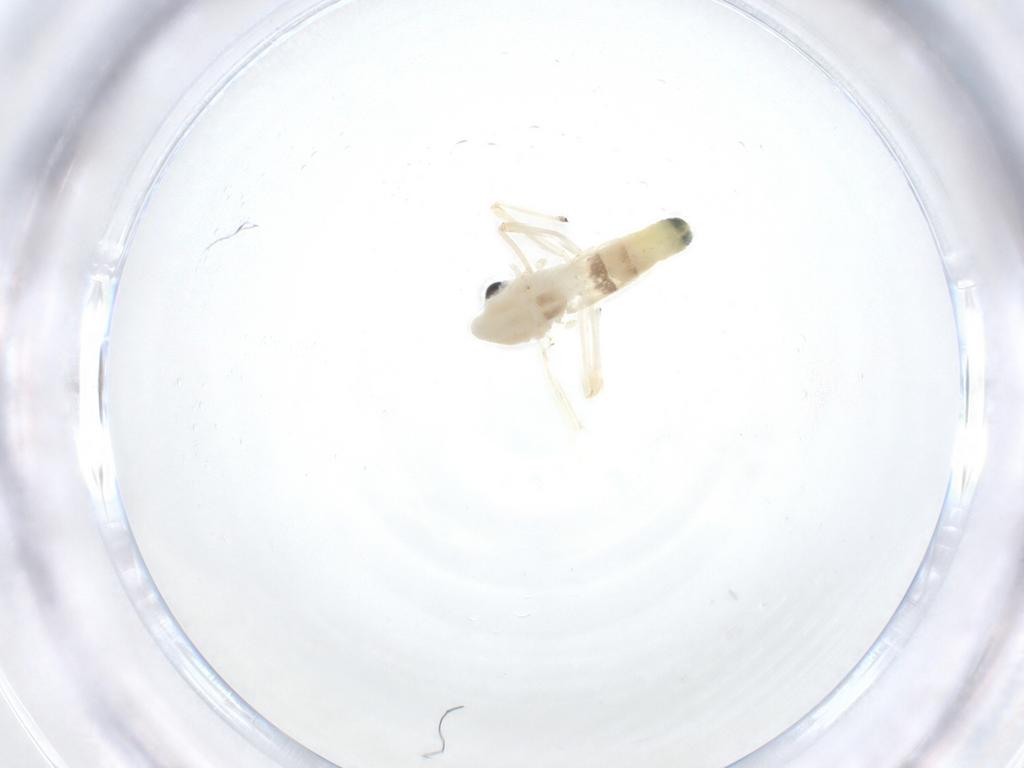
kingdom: Animalia
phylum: Arthropoda
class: Insecta
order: Diptera
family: Chironomidae
